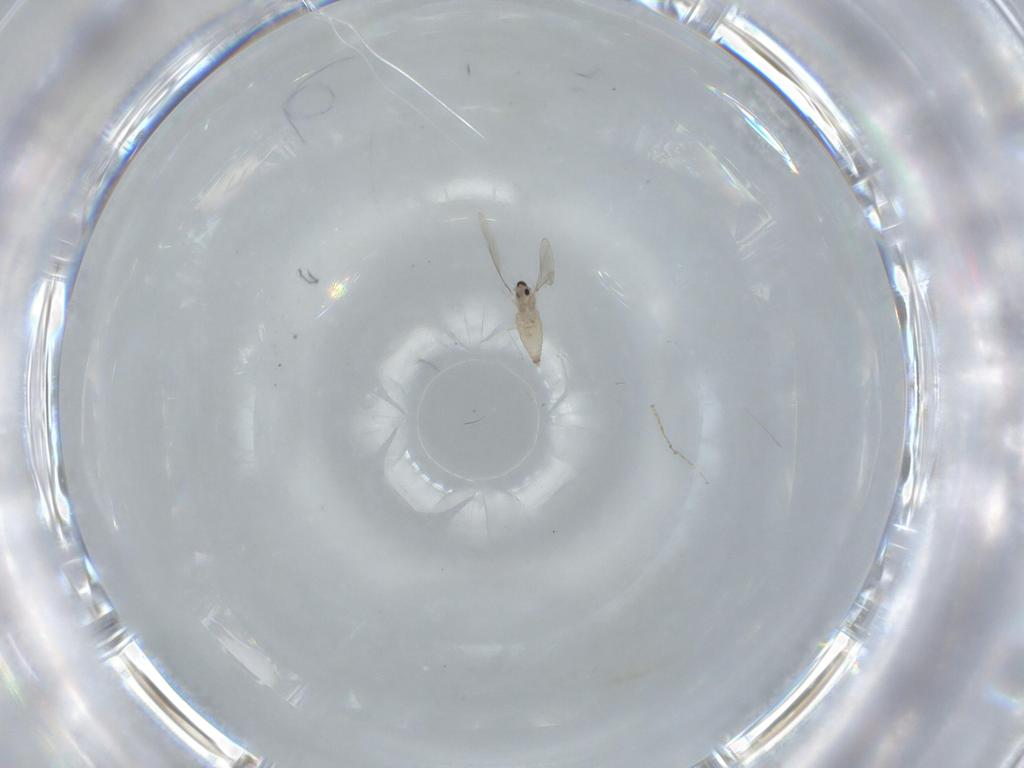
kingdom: Animalia
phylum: Arthropoda
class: Insecta
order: Diptera
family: Cecidomyiidae
